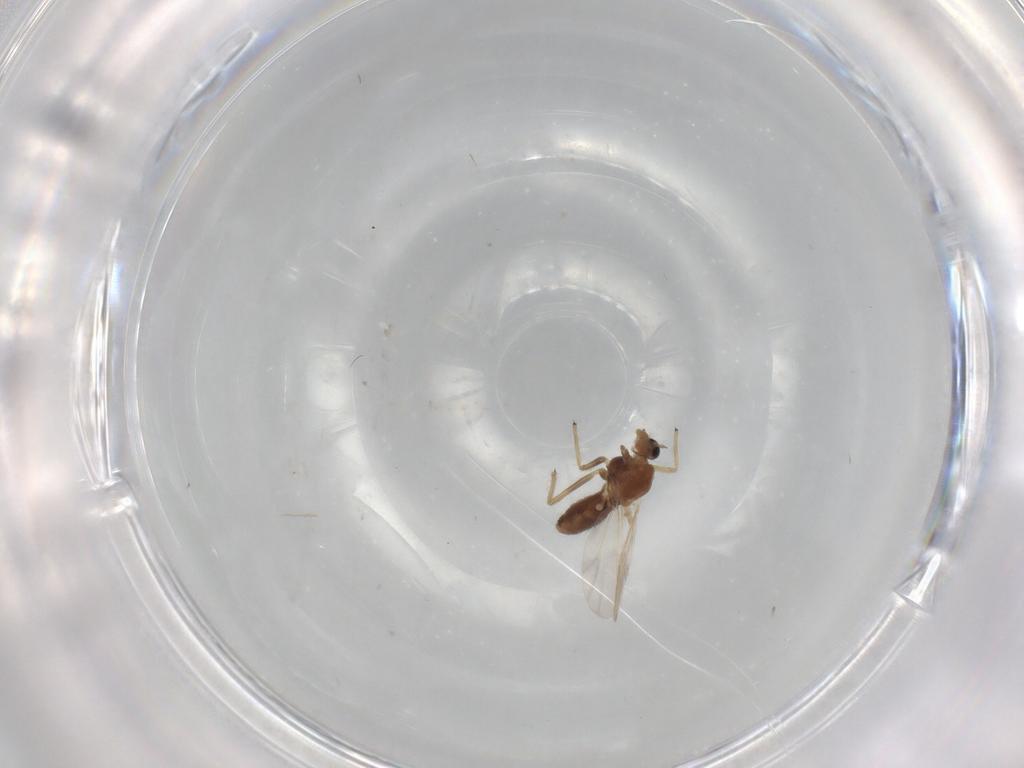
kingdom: Animalia
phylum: Arthropoda
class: Insecta
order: Diptera
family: Chironomidae
